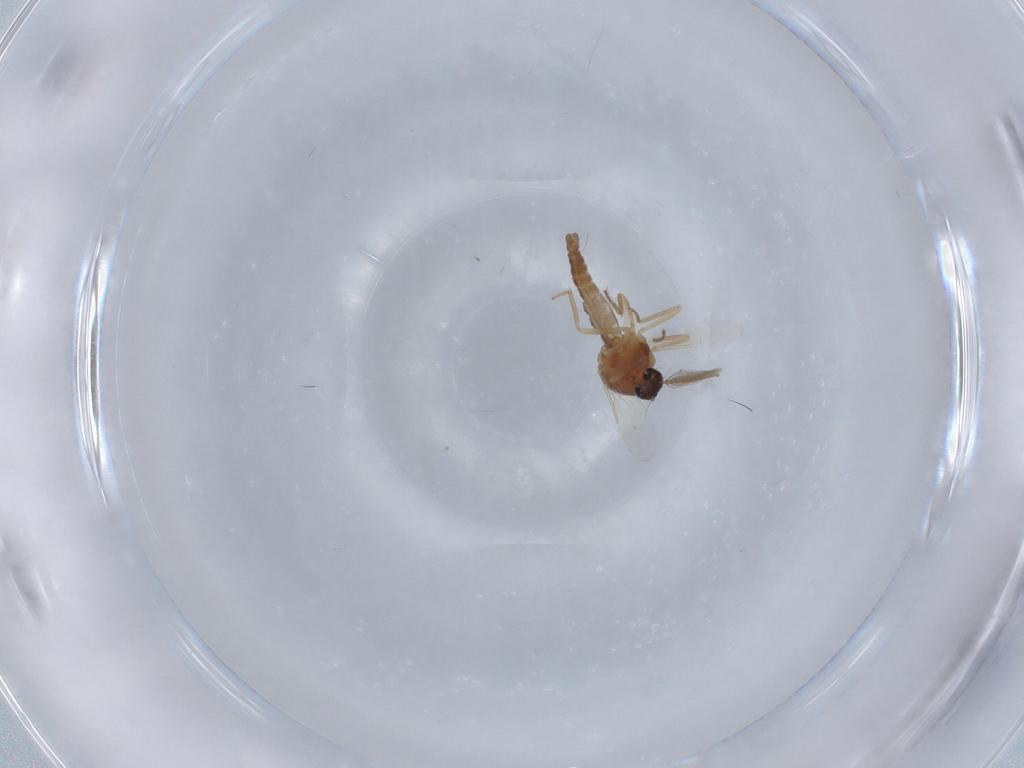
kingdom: Animalia
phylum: Arthropoda
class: Insecta
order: Diptera
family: Ceratopogonidae
